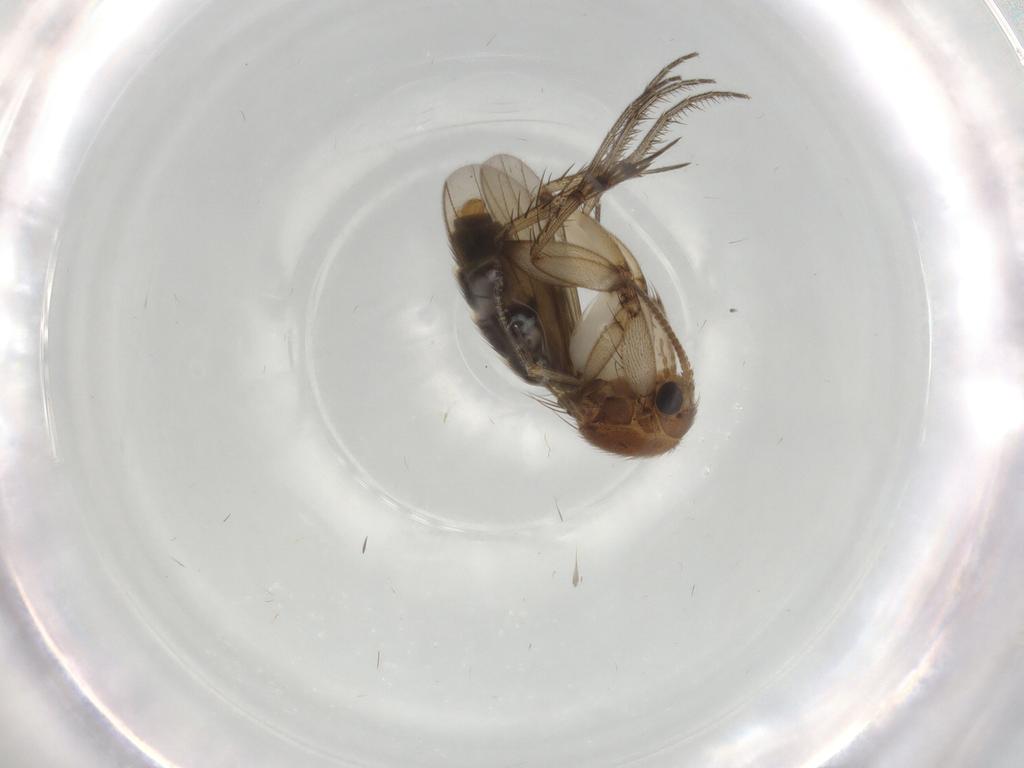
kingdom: Animalia
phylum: Arthropoda
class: Insecta
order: Diptera
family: Mycetophilidae
